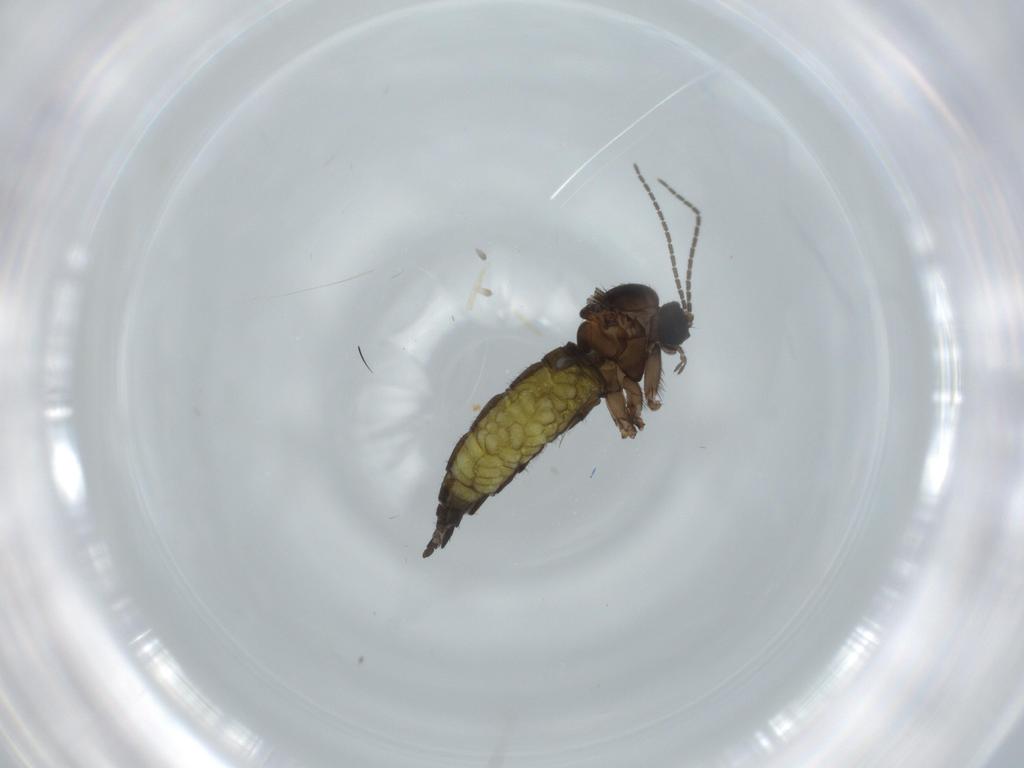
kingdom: Animalia
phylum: Arthropoda
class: Insecta
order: Diptera
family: Sciaridae
